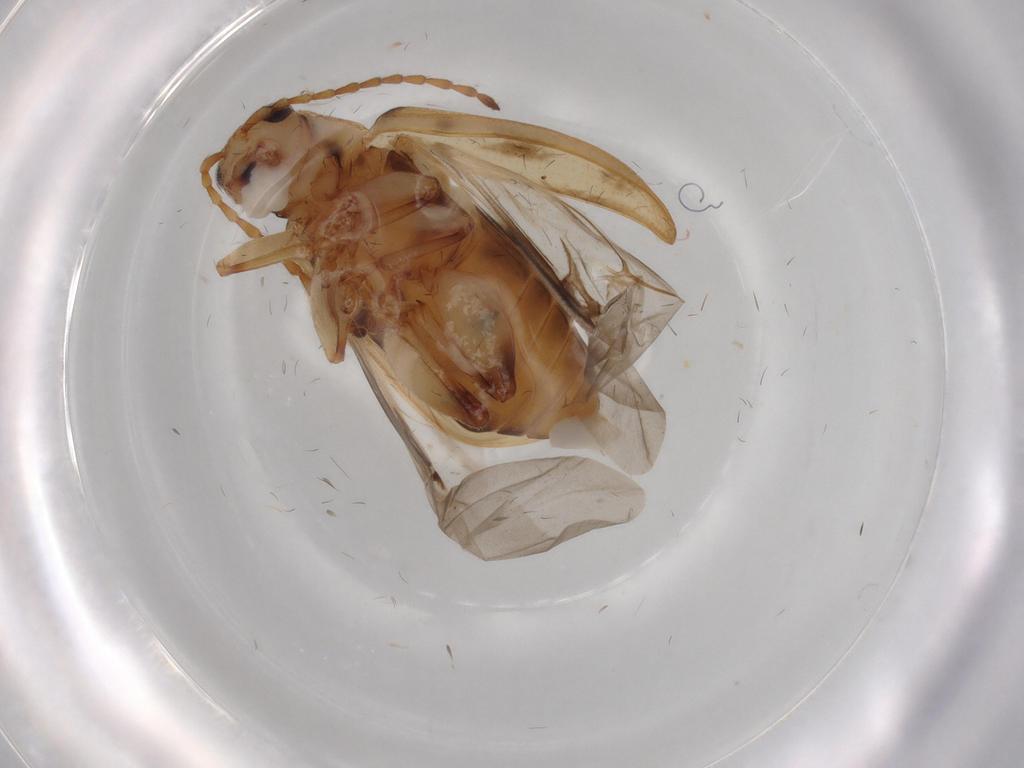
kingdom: Animalia
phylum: Arthropoda
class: Insecta
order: Coleoptera
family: Chrysomelidae
